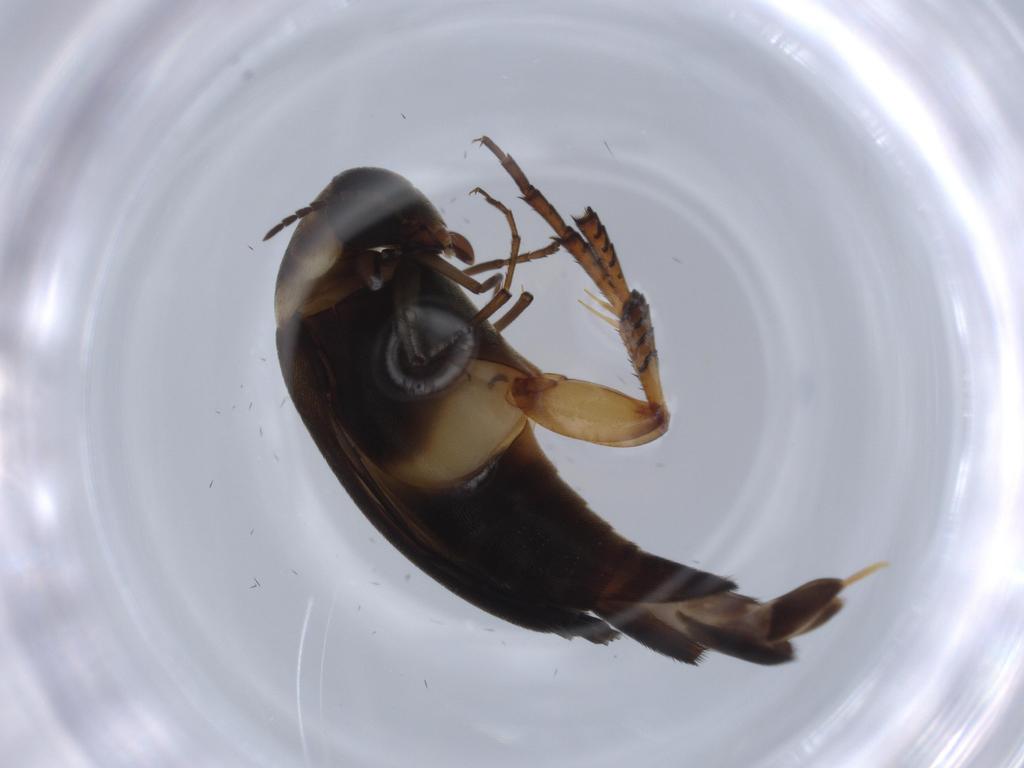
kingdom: Animalia
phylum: Arthropoda
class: Insecta
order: Coleoptera
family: Mordellidae
